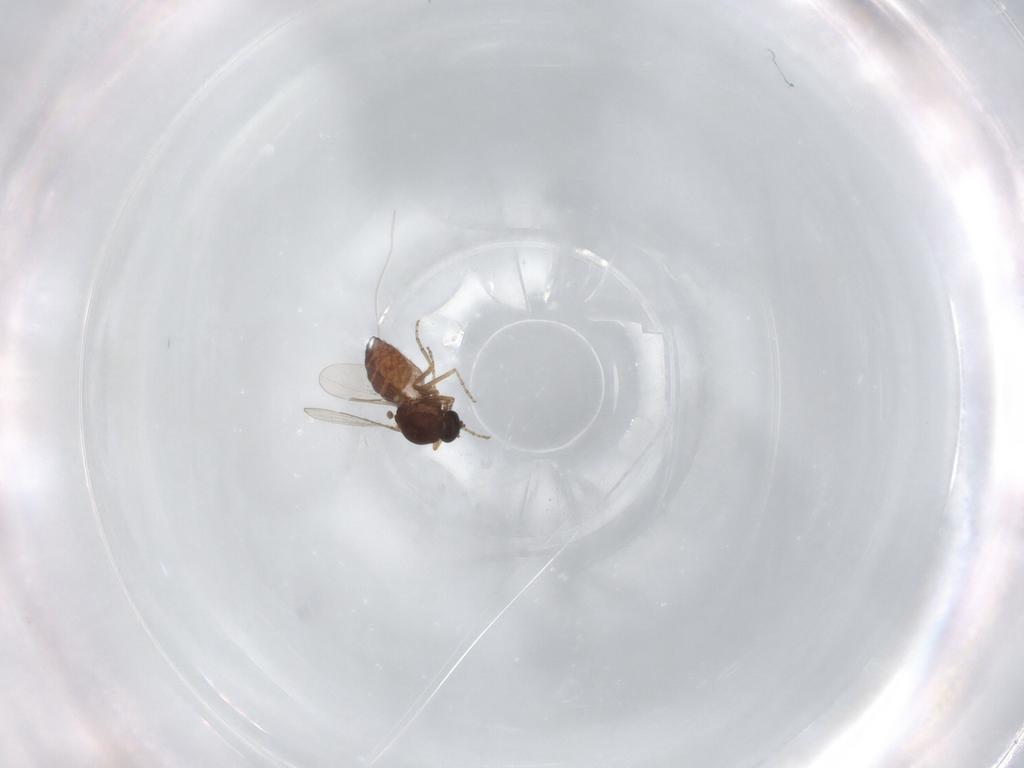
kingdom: Animalia
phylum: Arthropoda
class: Insecta
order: Diptera
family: Ceratopogonidae
